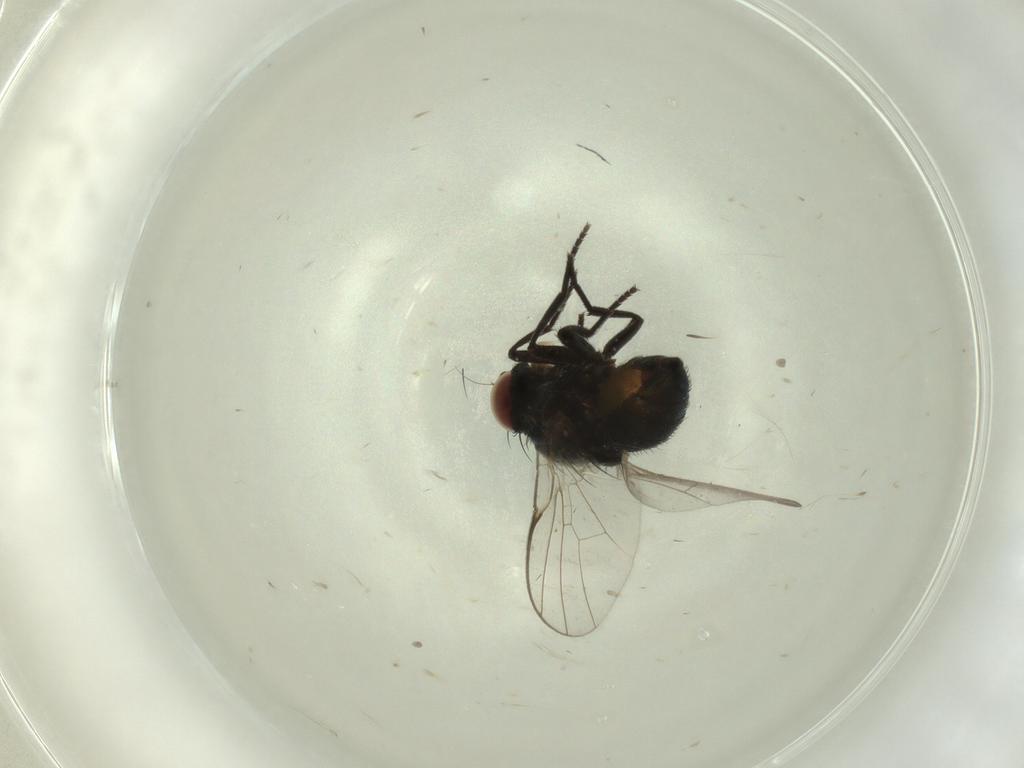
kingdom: Animalia
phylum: Arthropoda
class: Insecta
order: Diptera
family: Agromyzidae
